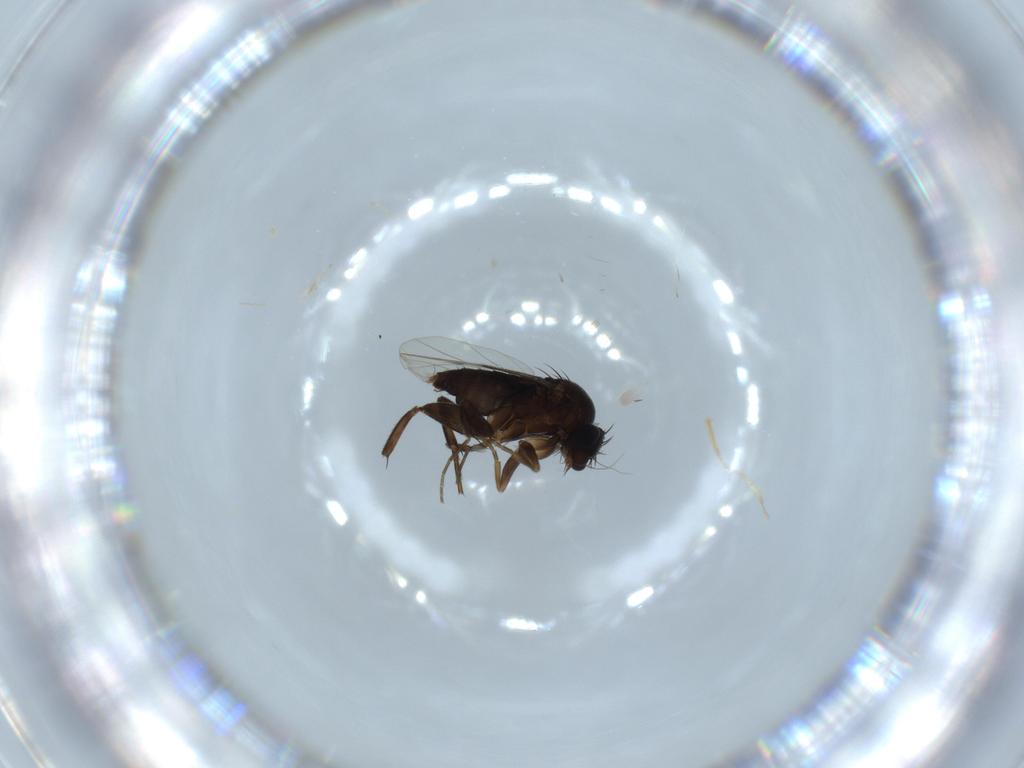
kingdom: Animalia
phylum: Arthropoda
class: Insecta
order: Diptera
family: Phoridae
